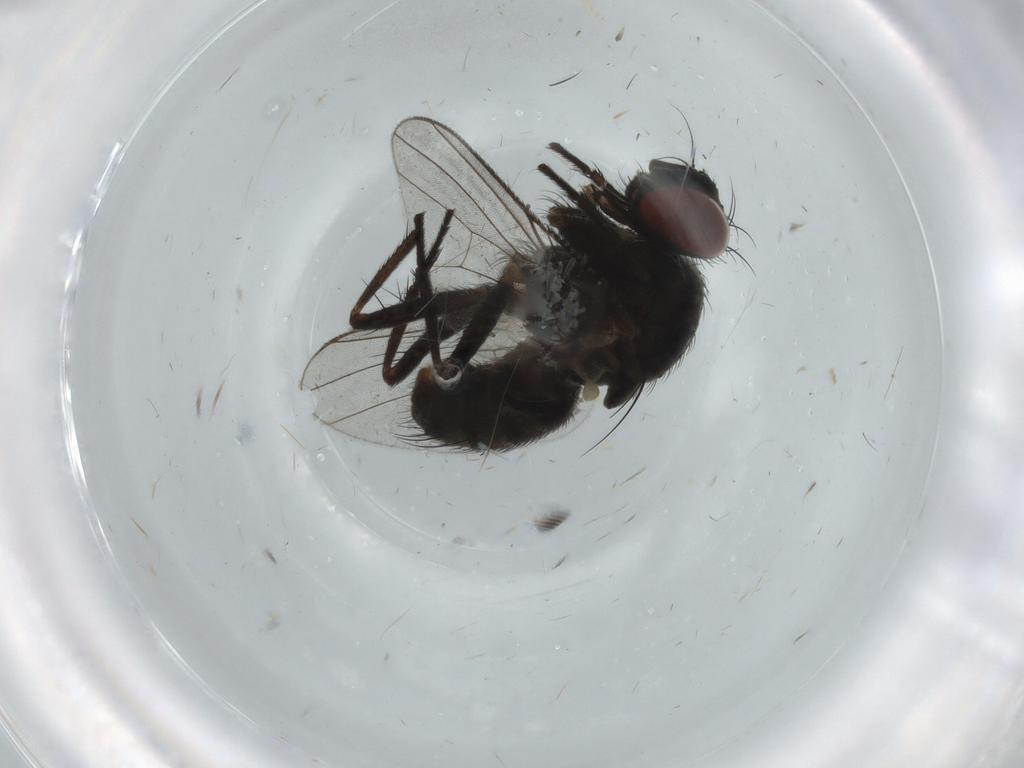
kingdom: Animalia
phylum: Arthropoda
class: Insecta
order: Diptera
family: Muscidae
